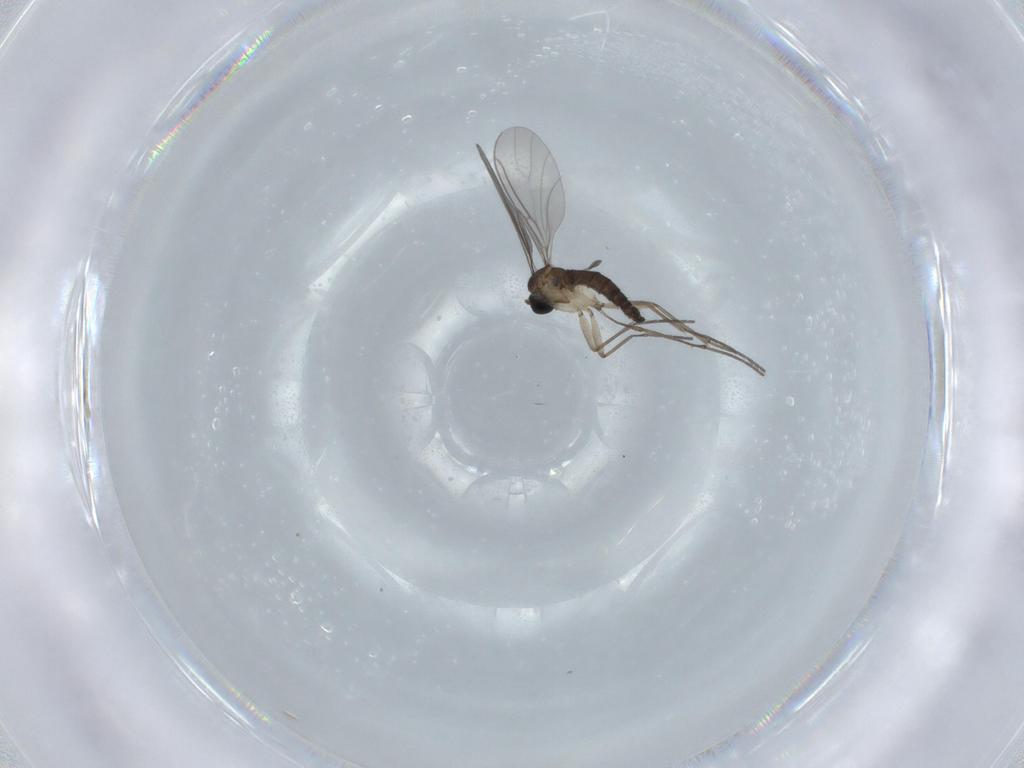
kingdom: Animalia
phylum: Arthropoda
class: Insecta
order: Diptera
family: Sciaridae
